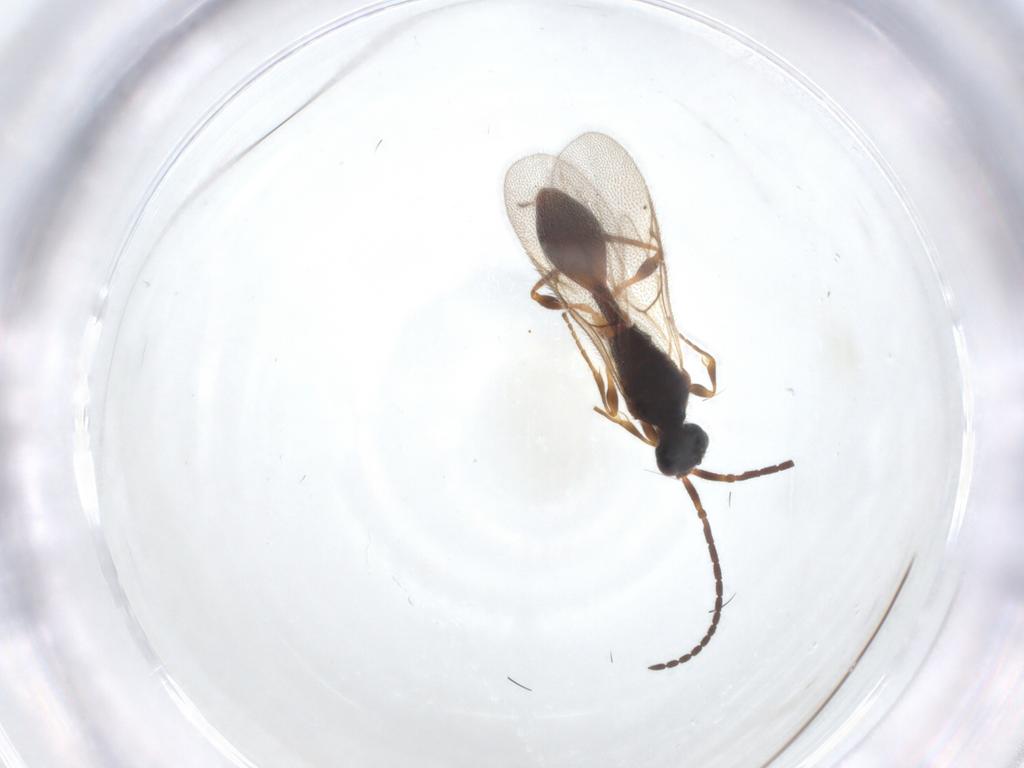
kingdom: Animalia
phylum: Arthropoda
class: Insecta
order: Hymenoptera
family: Diapriidae
